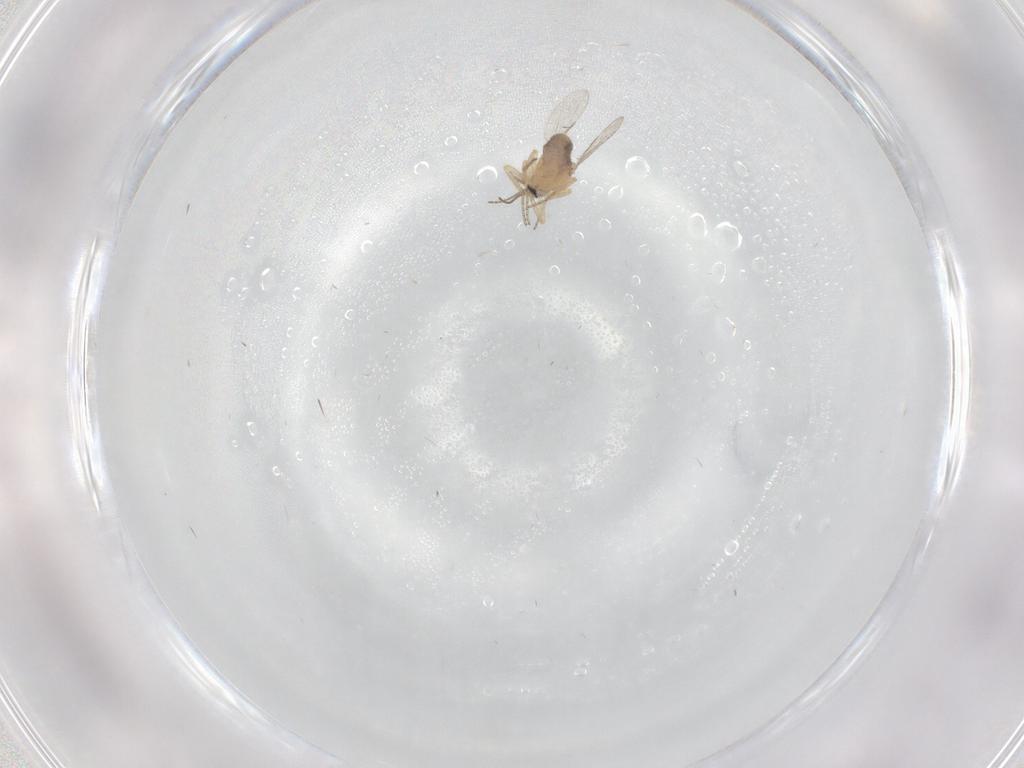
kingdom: Animalia
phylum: Arthropoda
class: Insecta
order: Diptera
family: Ceratopogonidae
